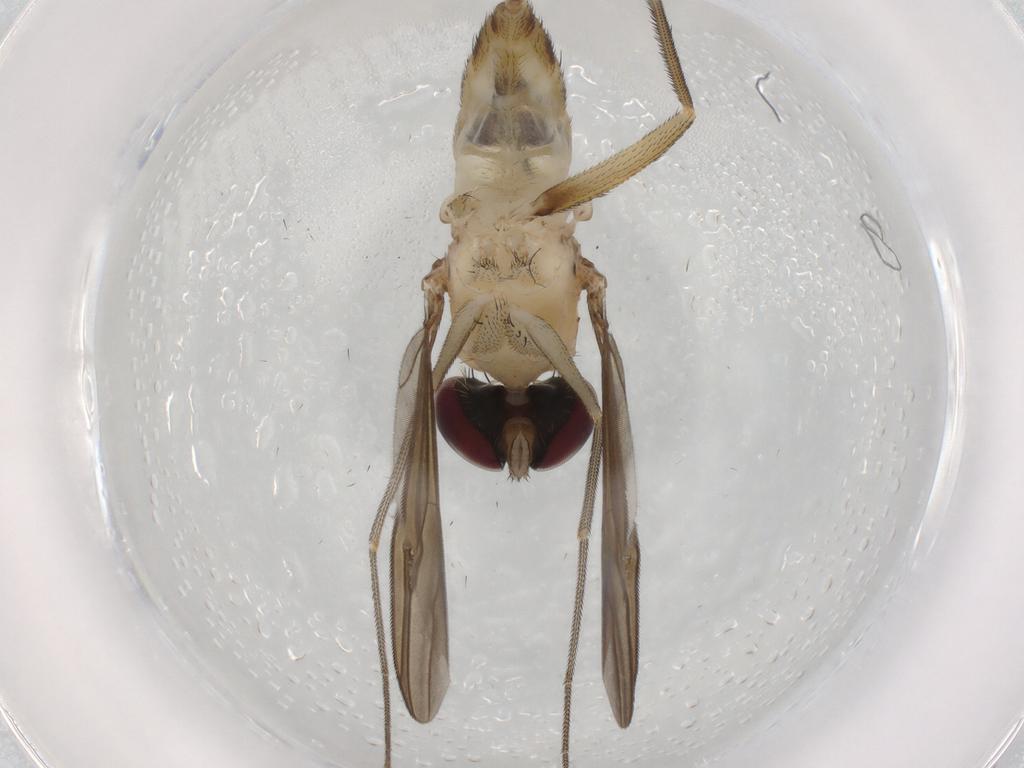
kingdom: Animalia
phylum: Arthropoda
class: Insecta
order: Diptera
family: Dolichopodidae
